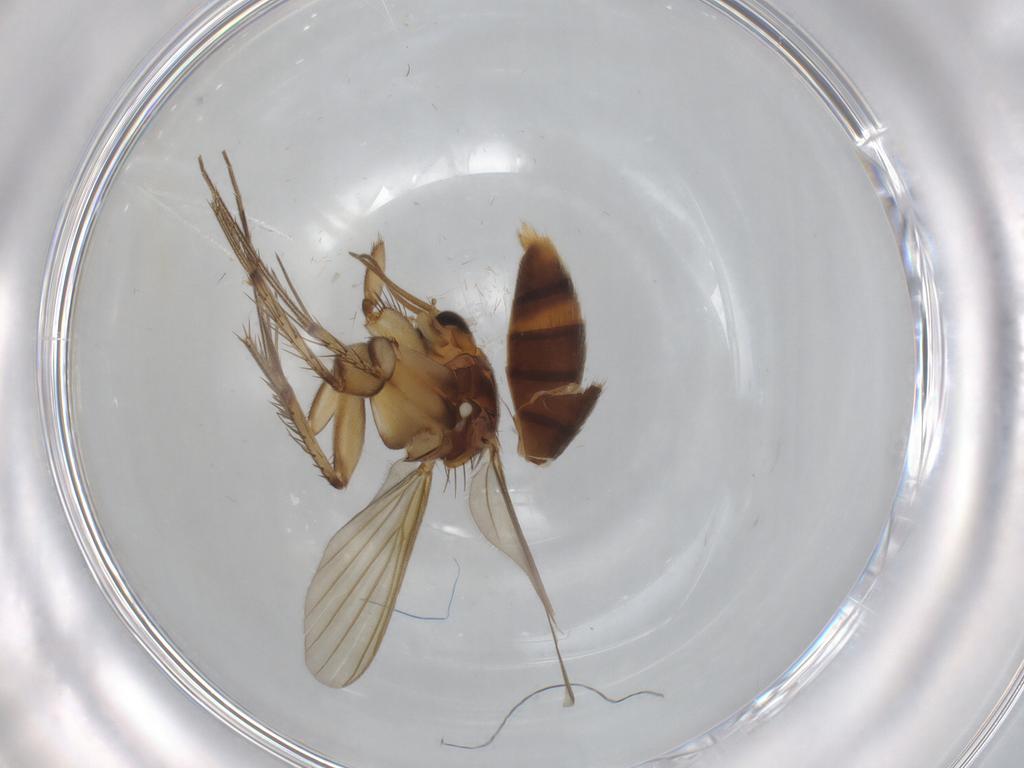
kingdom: Animalia
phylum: Arthropoda
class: Insecta
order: Diptera
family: Mycetophilidae
